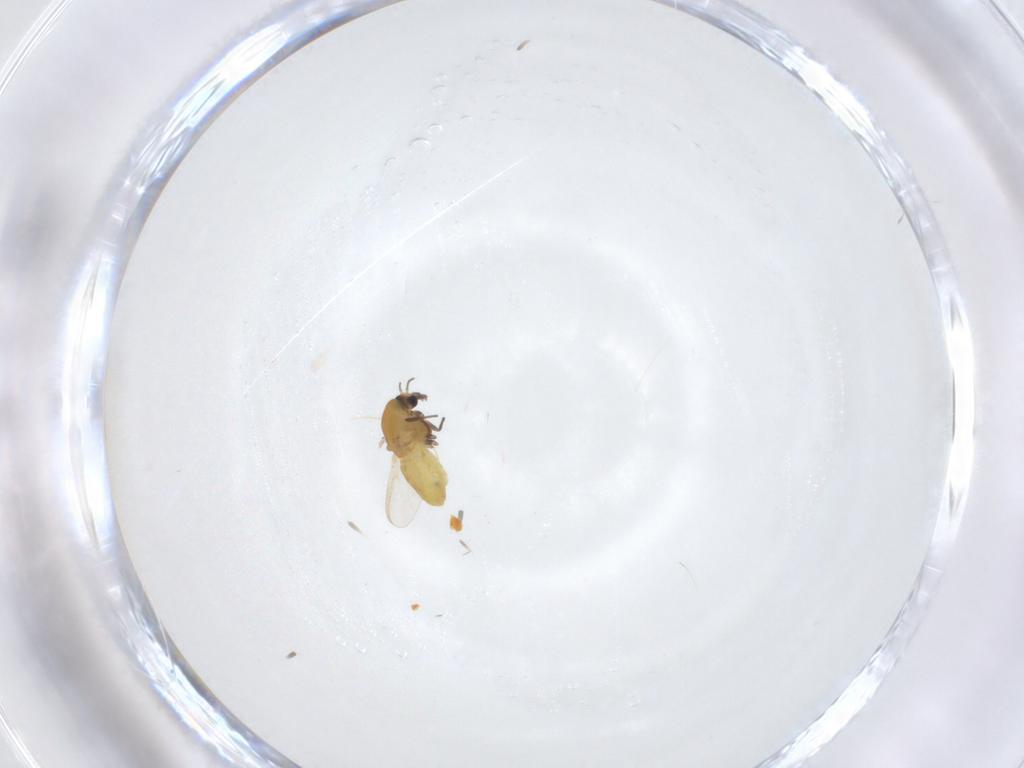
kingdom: Animalia
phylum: Arthropoda
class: Insecta
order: Diptera
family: Chironomidae
